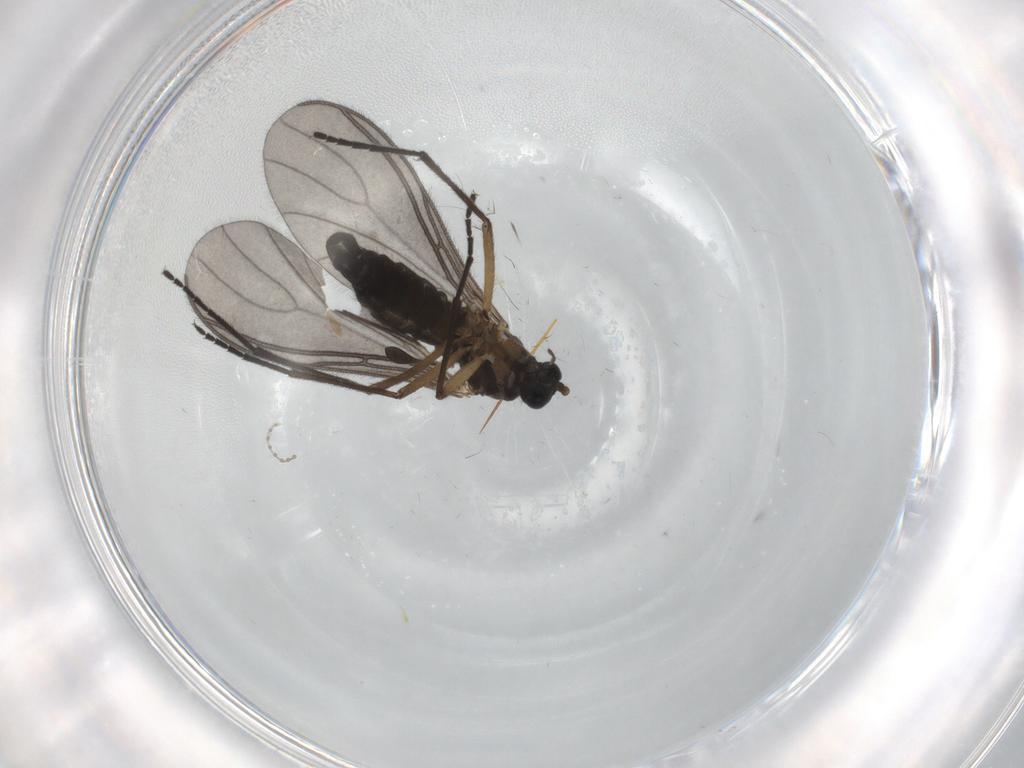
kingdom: Animalia
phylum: Arthropoda
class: Insecta
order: Diptera
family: Sciaridae
